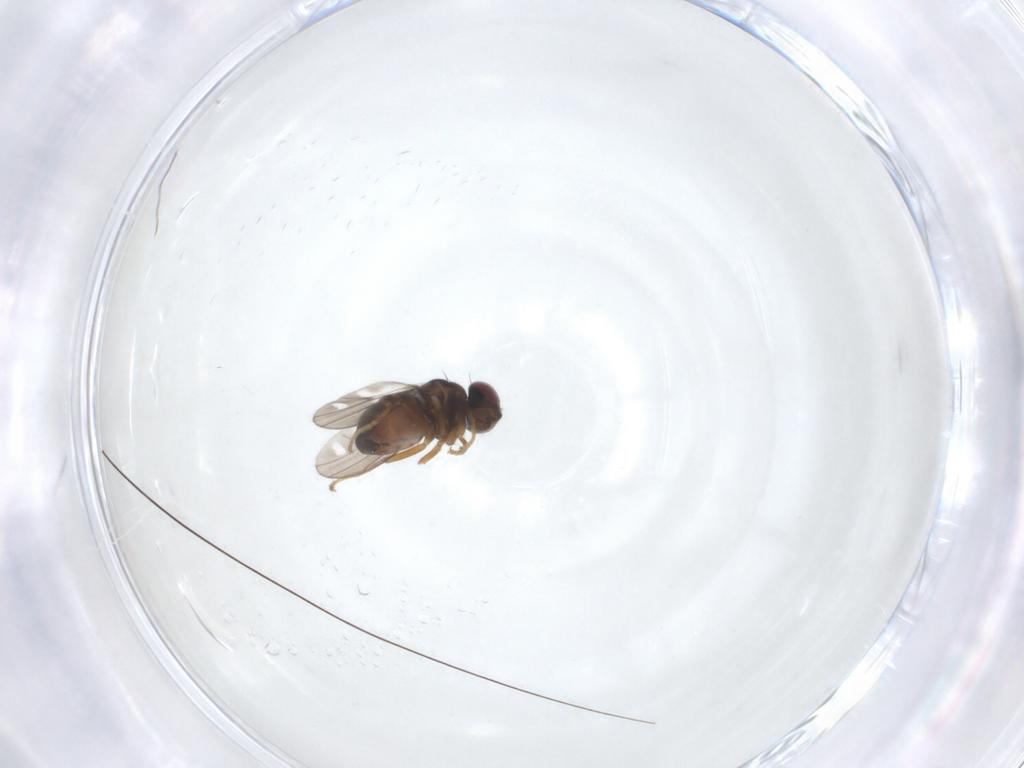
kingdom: Animalia
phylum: Arthropoda
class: Insecta
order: Diptera
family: Ephydridae
